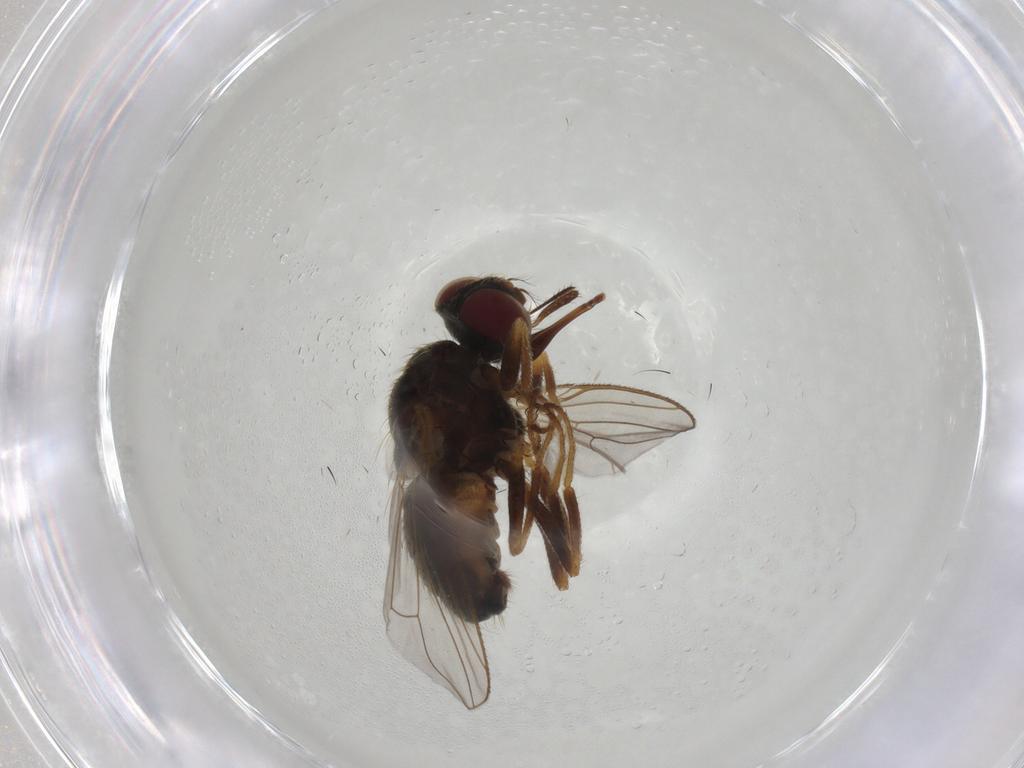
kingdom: Animalia
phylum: Arthropoda
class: Insecta
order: Diptera
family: Muscidae
